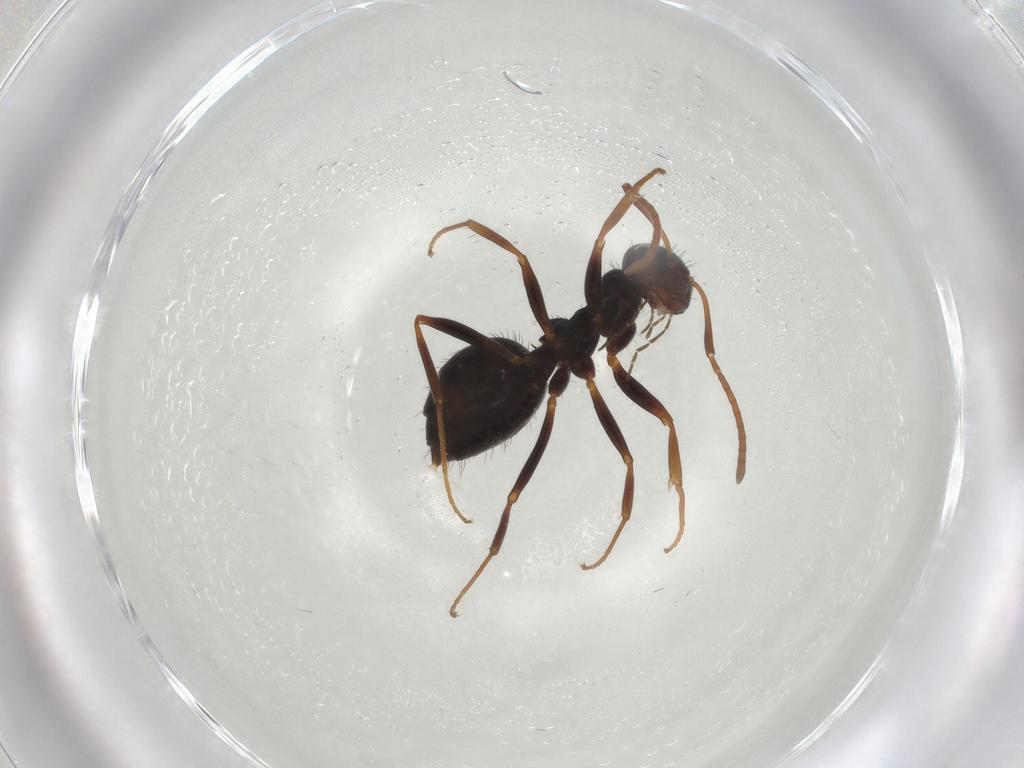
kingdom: Animalia
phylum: Arthropoda
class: Insecta
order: Hymenoptera
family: Formicidae
